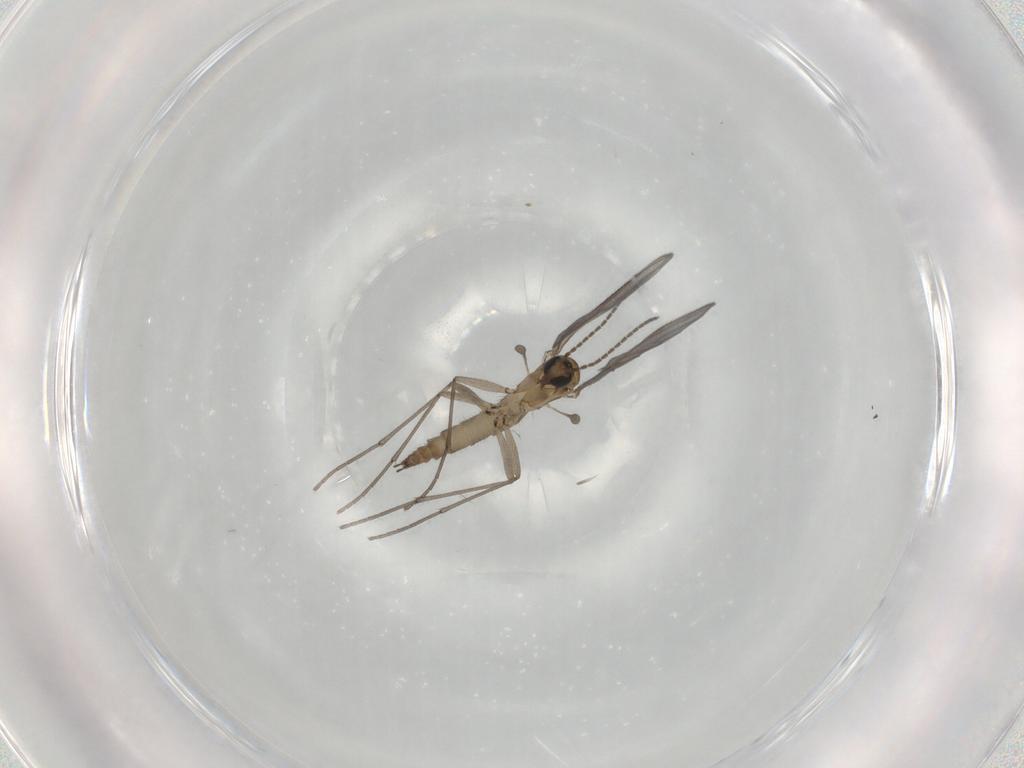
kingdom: Animalia
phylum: Arthropoda
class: Insecta
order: Diptera
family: Sciaridae
